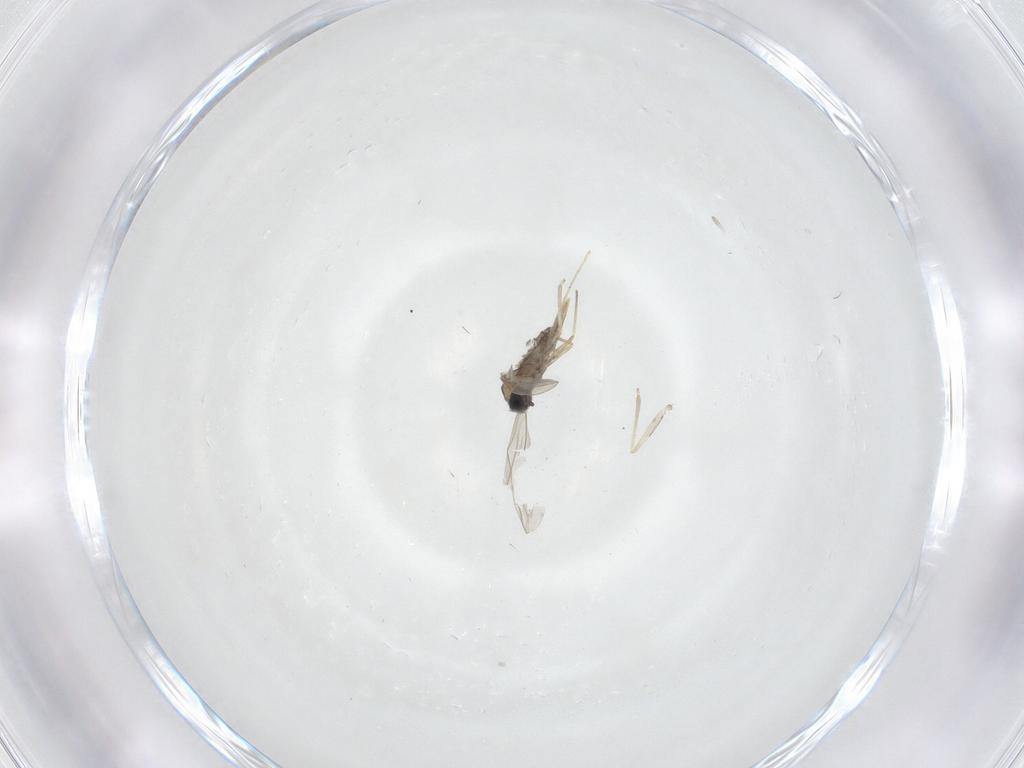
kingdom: Animalia
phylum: Arthropoda
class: Insecta
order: Diptera
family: Cecidomyiidae
